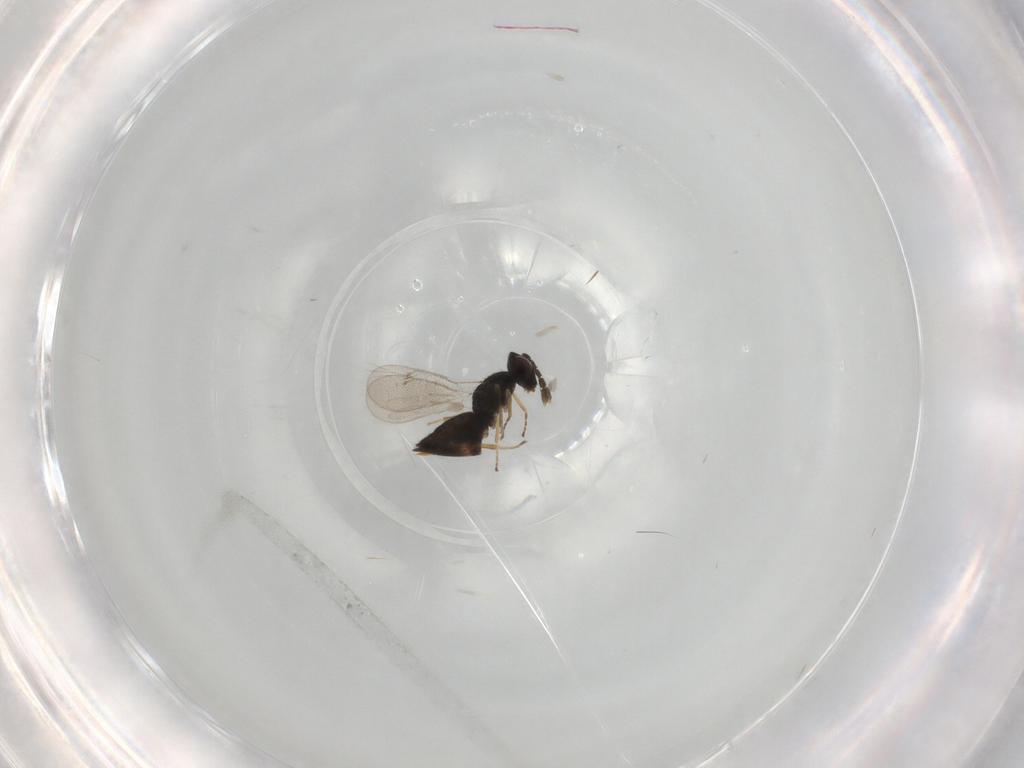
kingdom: Animalia
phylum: Arthropoda
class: Insecta
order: Hymenoptera
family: Eulophidae
